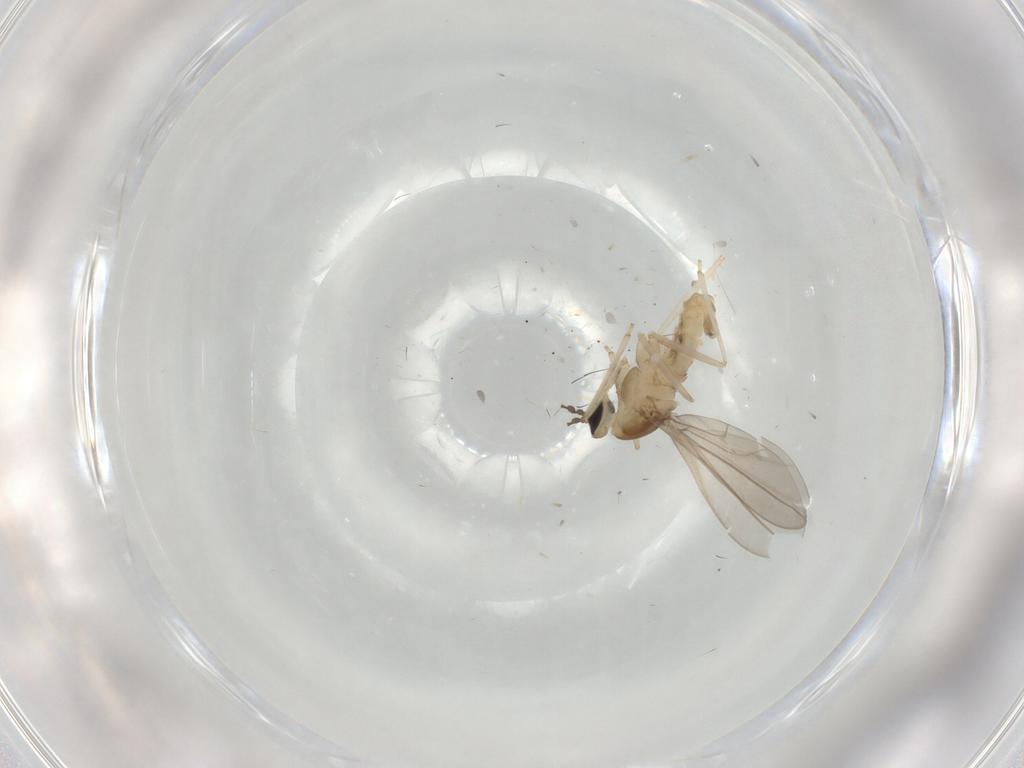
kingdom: Animalia
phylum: Arthropoda
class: Insecta
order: Diptera
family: Cecidomyiidae
